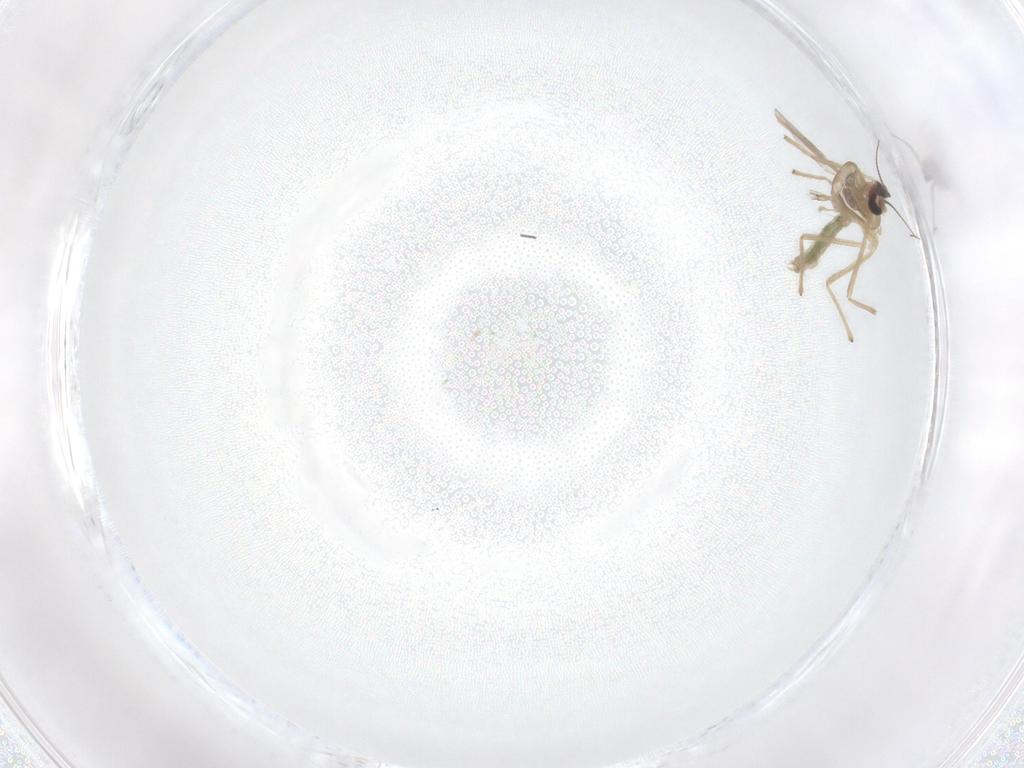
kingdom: Animalia
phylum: Arthropoda
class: Insecta
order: Diptera
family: Chironomidae
